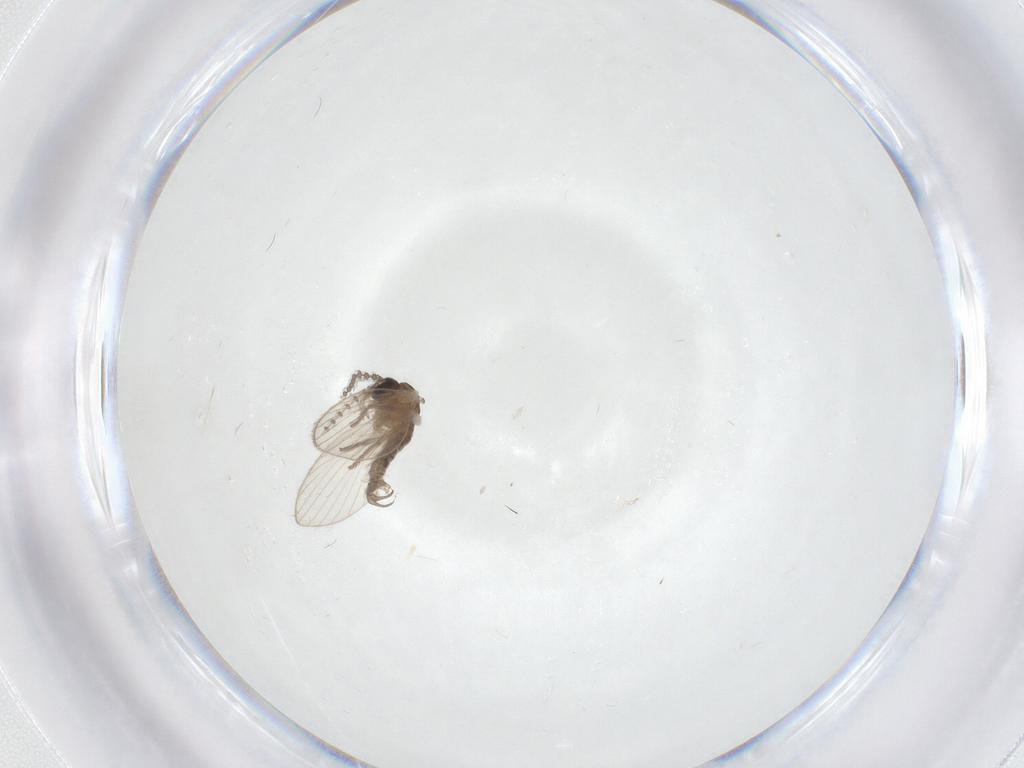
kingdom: Animalia
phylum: Arthropoda
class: Insecta
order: Diptera
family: Psychodidae
